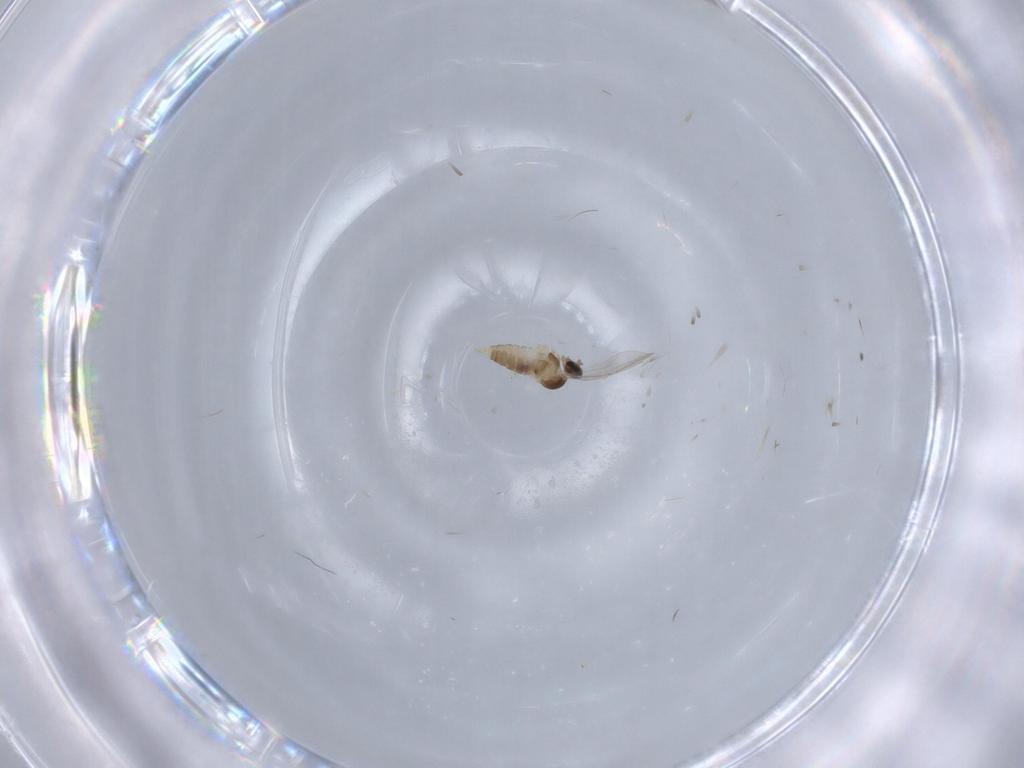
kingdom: Animalia
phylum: Arthropoda
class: Insecta
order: Diptera
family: Cecidomyiidae
